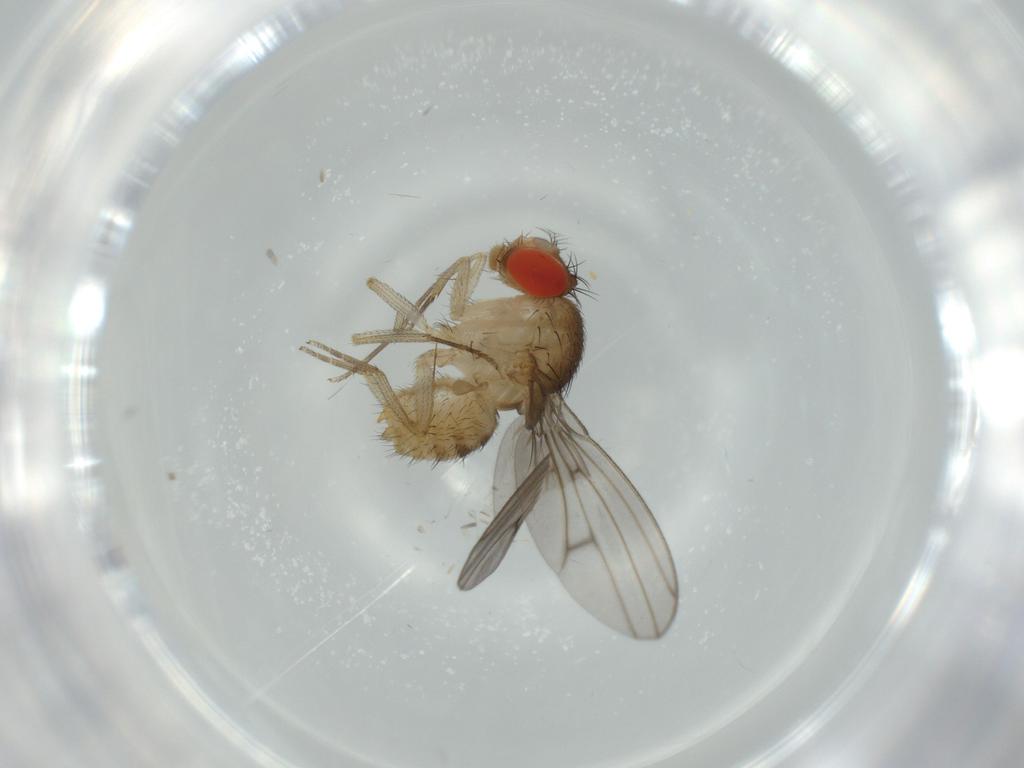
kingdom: Animalia
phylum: Arthropoda
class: Insecta
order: Diptera
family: Drosophilidae
